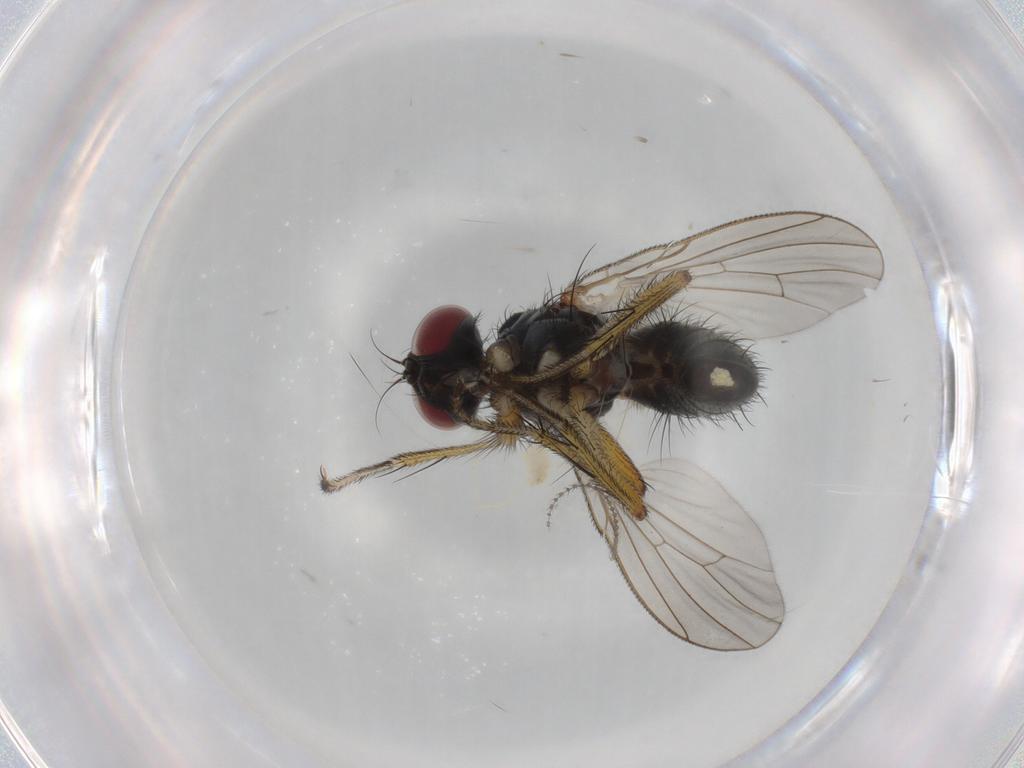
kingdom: Animalia
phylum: Arthropoda
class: Insecta
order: Diptera
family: Muscidae
